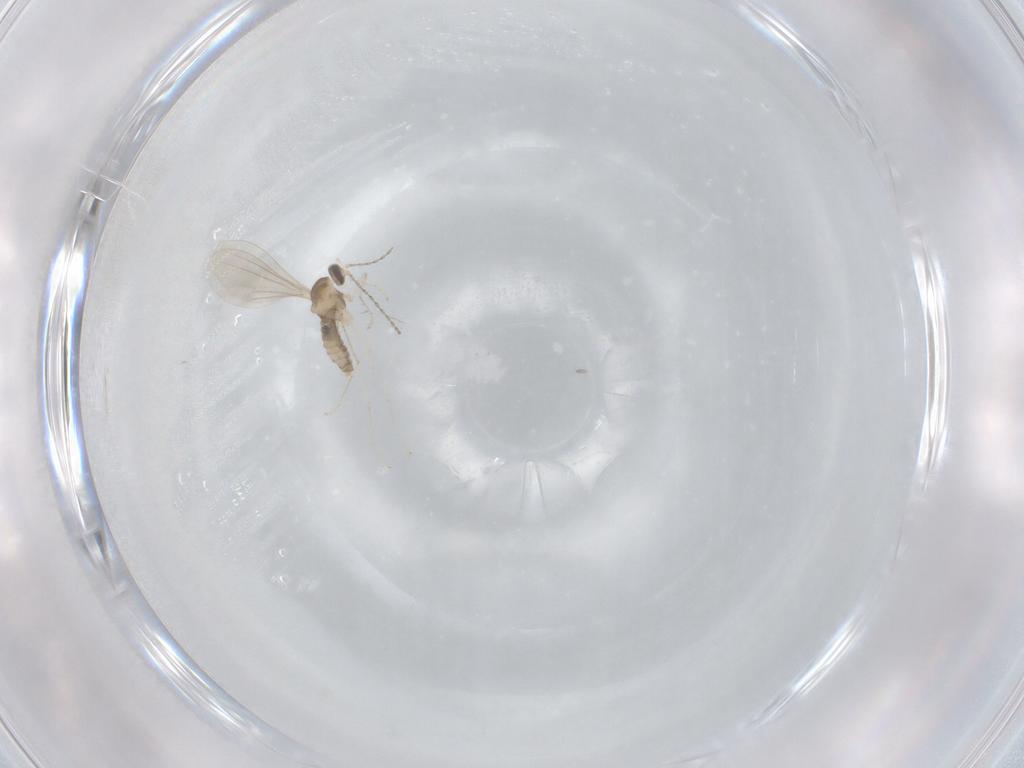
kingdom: Animalia
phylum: Arthropoda
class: Insecta
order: Diptera
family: Cecidomyiidae
